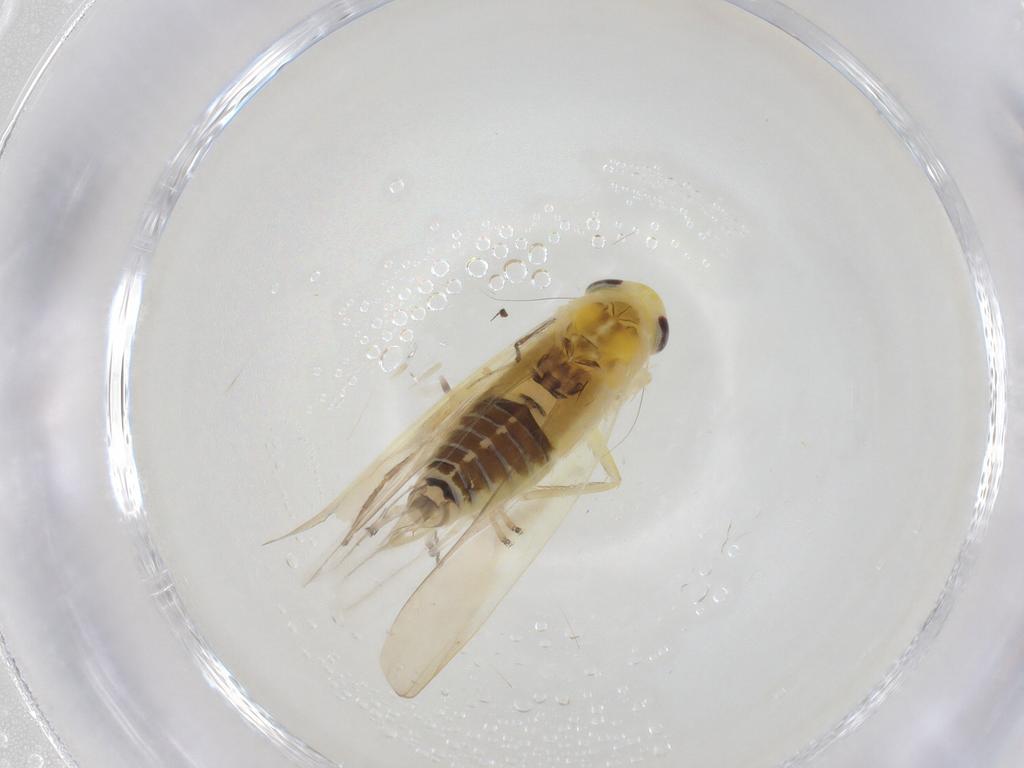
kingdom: Animalia
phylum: Arthropoda
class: Insecta
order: Hemiptera
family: Cicadellidae
